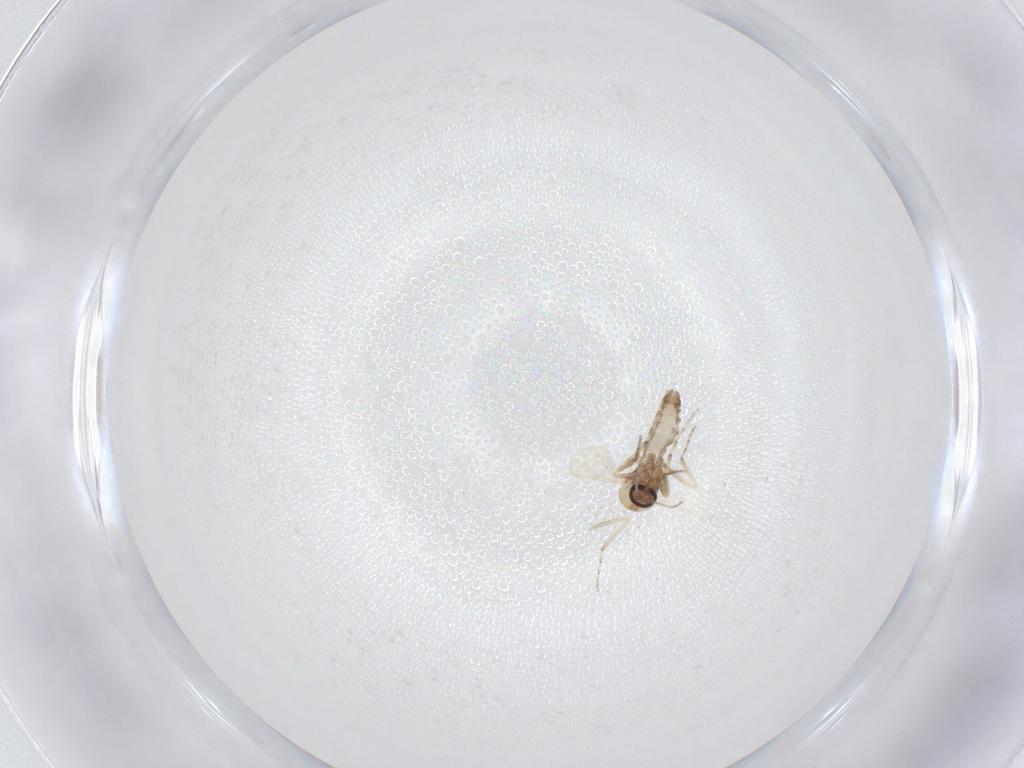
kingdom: Animalia
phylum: Arthropoda
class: Insecta
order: Diptera
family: Ceratopogonidae
